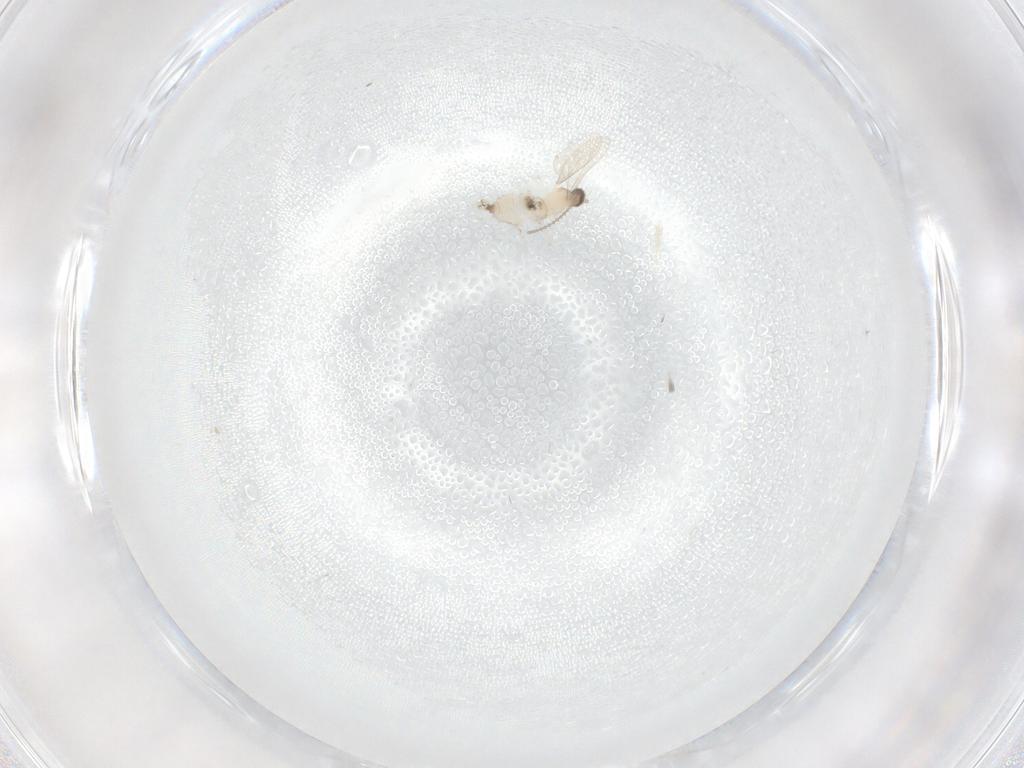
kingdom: Animalia
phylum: Arthropoda
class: Insecta
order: Diptera
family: Cecidomyiidae
